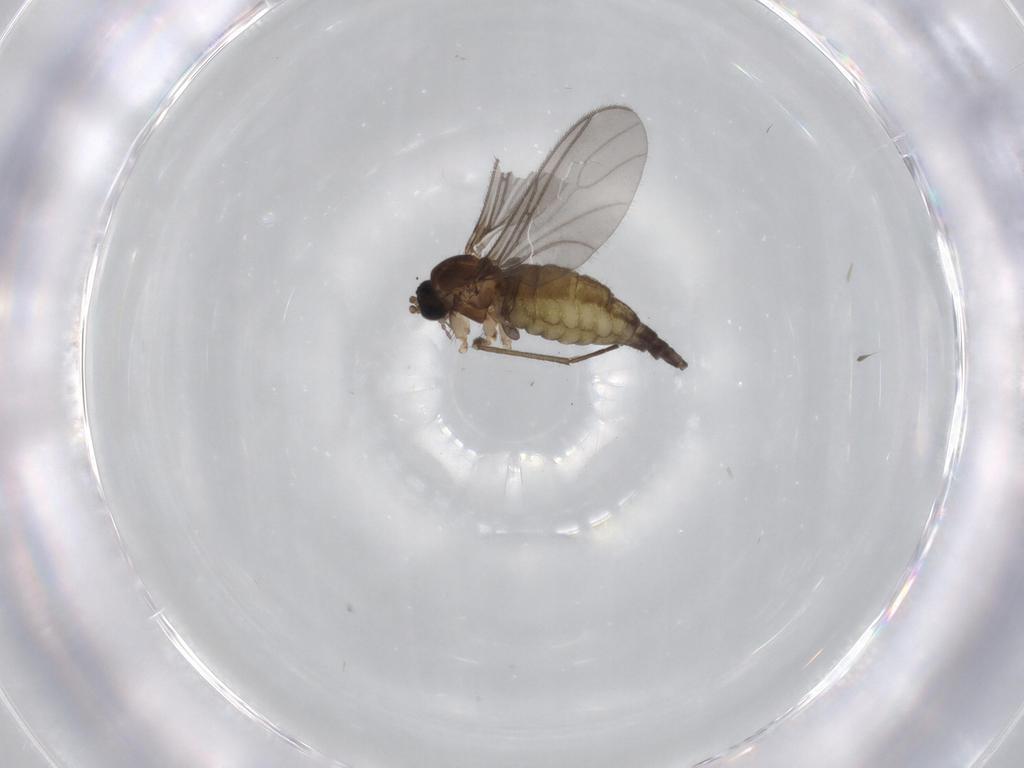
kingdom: Animalia
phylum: Arthropoda
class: Insecta
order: Diptera
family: Sciaridae
